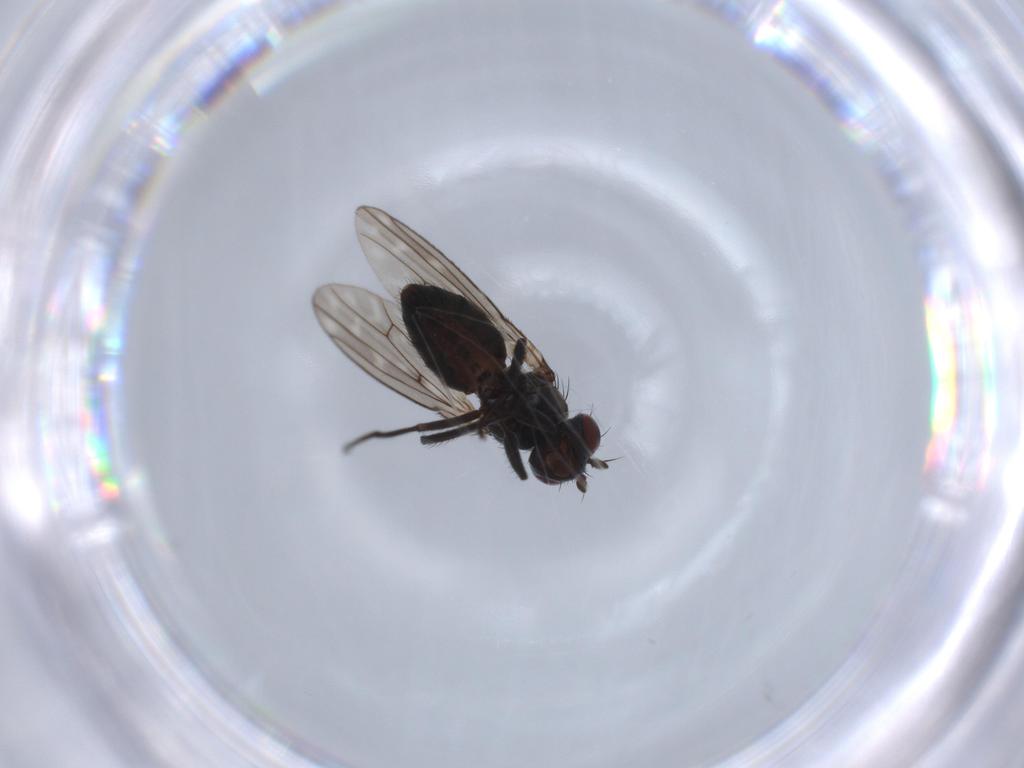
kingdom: Animalia
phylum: Arthropoda
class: Insecta
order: Diptera
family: Ephydridae
